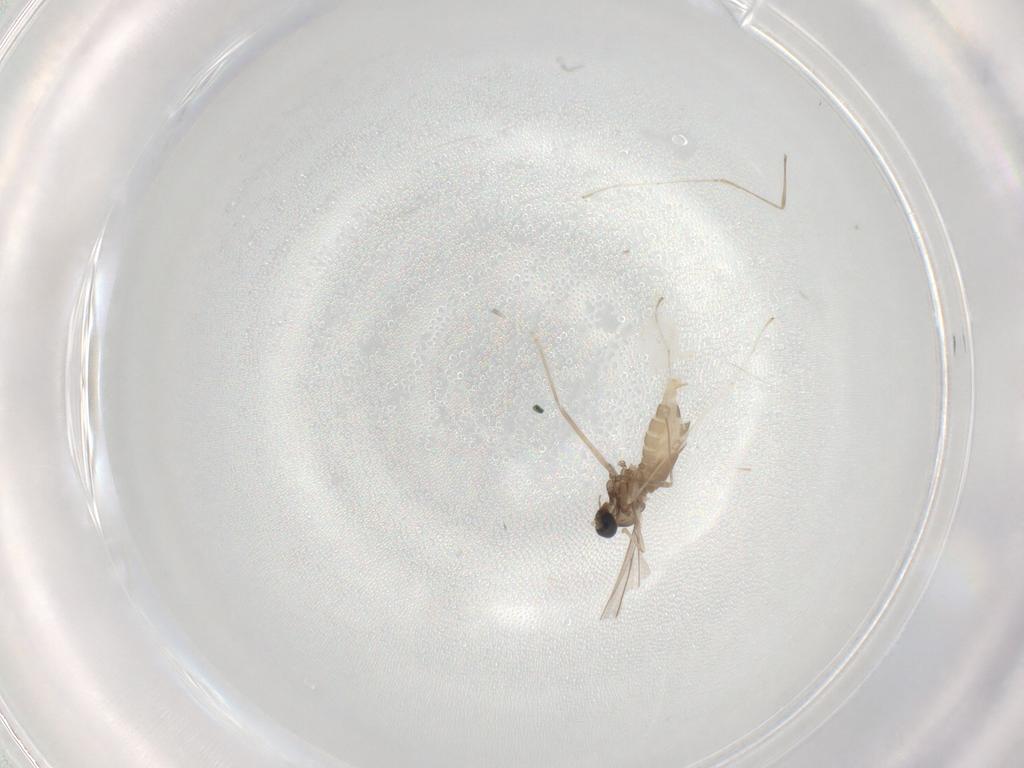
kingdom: Animalia
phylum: Arthropoda
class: Insecta
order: Diptera
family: Cecidomyiidae
